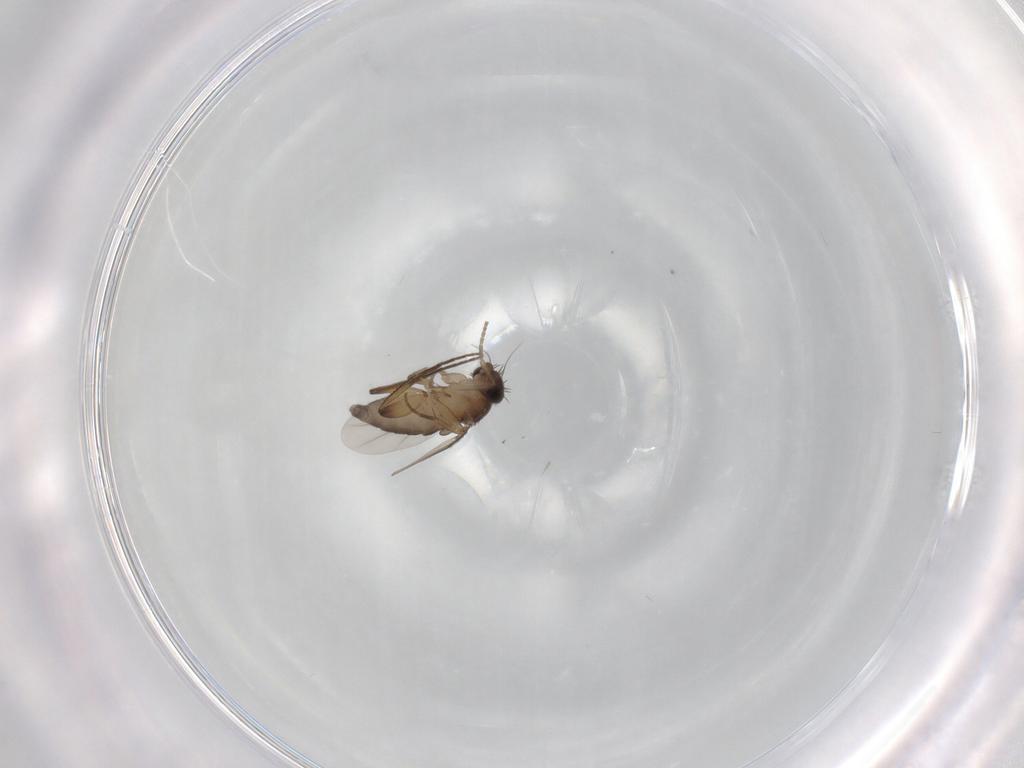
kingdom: Animalia
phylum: Arthropoda
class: Insecta
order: Diptera
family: Phoridae
